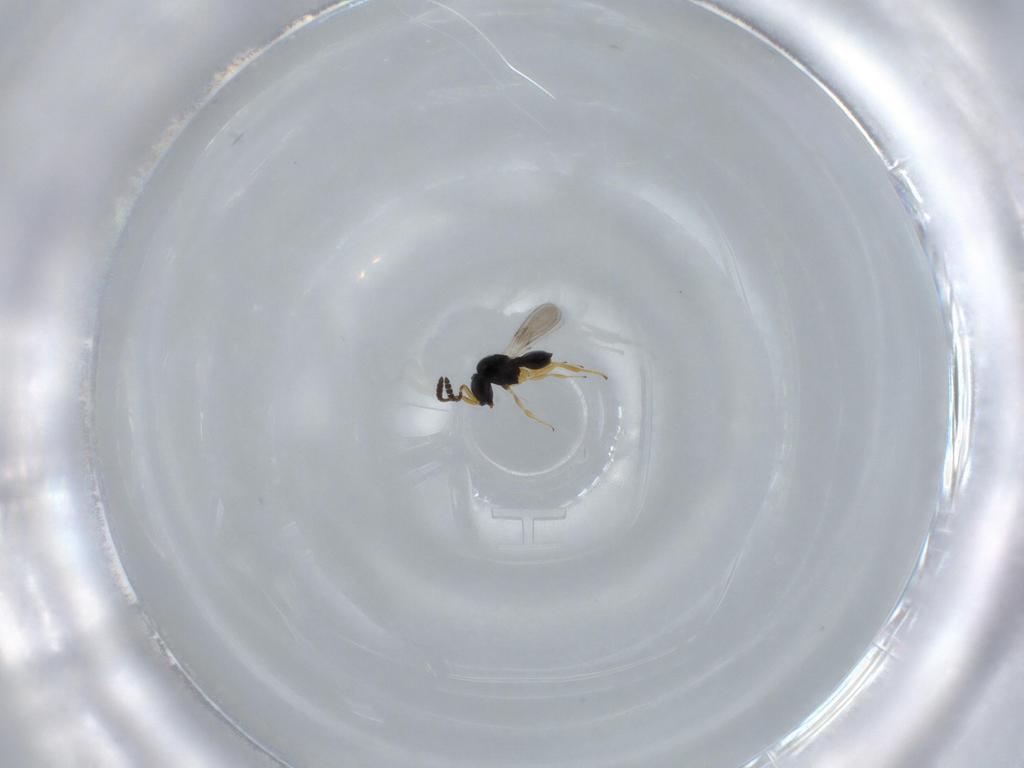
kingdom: Animalia
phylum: Arthropoda
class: Insecta
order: Hymenoptera
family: Scelionidae
